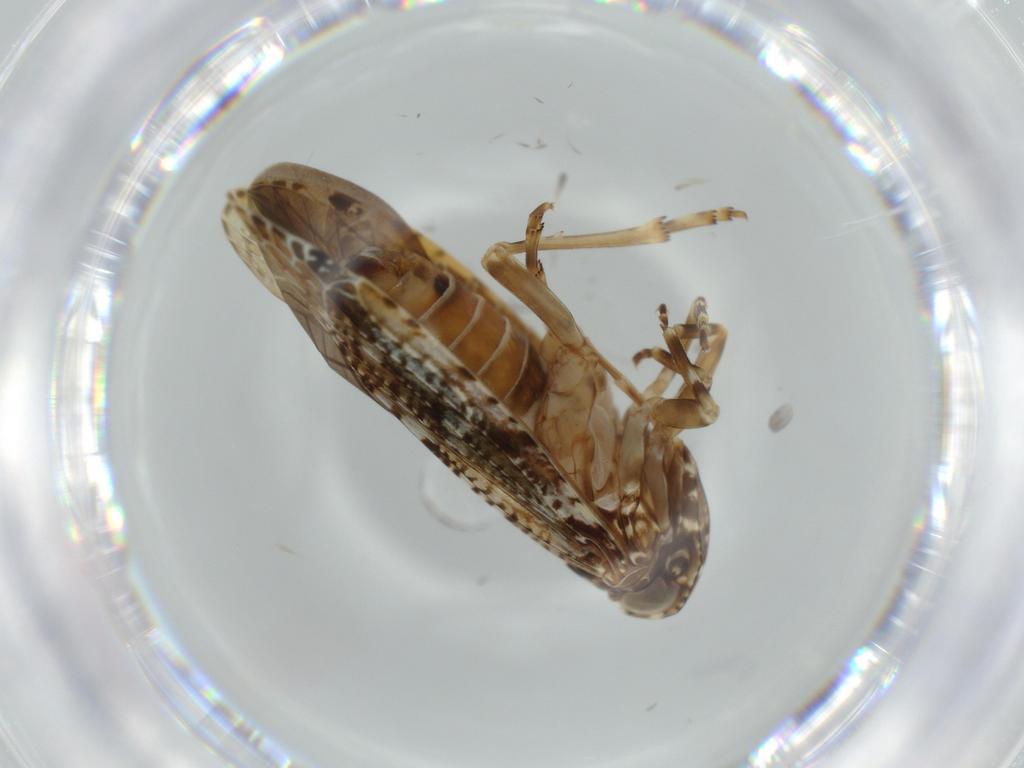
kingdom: Animalia
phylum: Arthropoda
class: Insecta
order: Hemiptera
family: Achilidae
